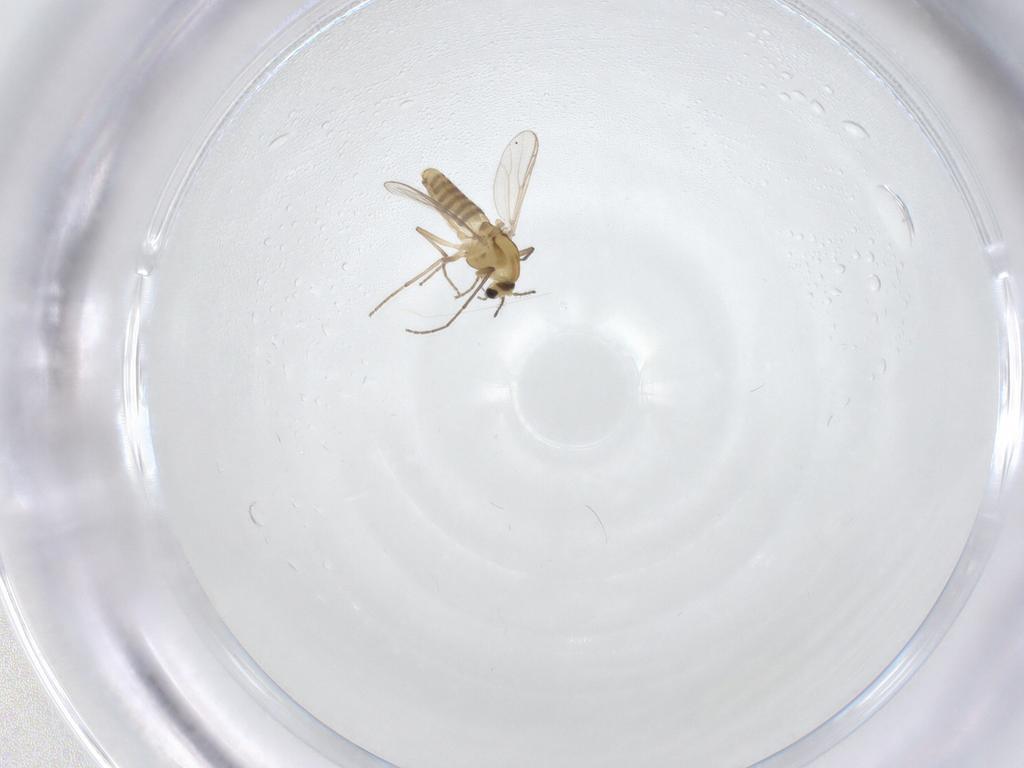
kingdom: Animalia
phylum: Arthropoda
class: Insecta
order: Diptera
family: Chironomidae
